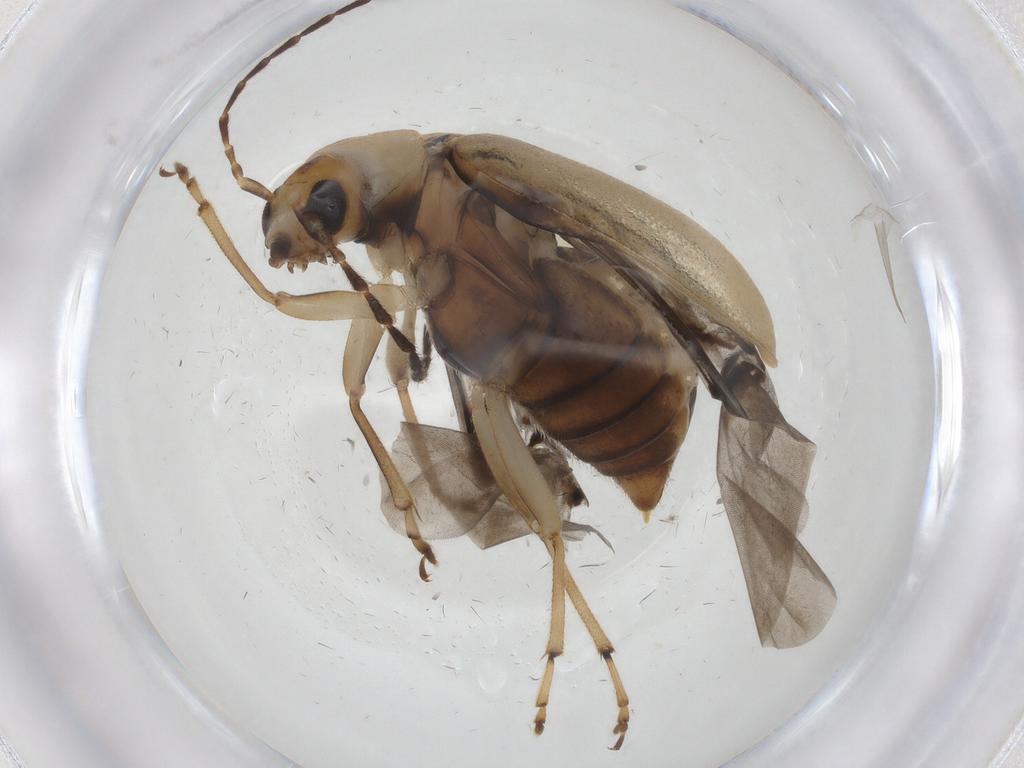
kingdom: Animalia
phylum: Arthropoda
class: Insecta
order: Coleoptera
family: Chrysomelidae
